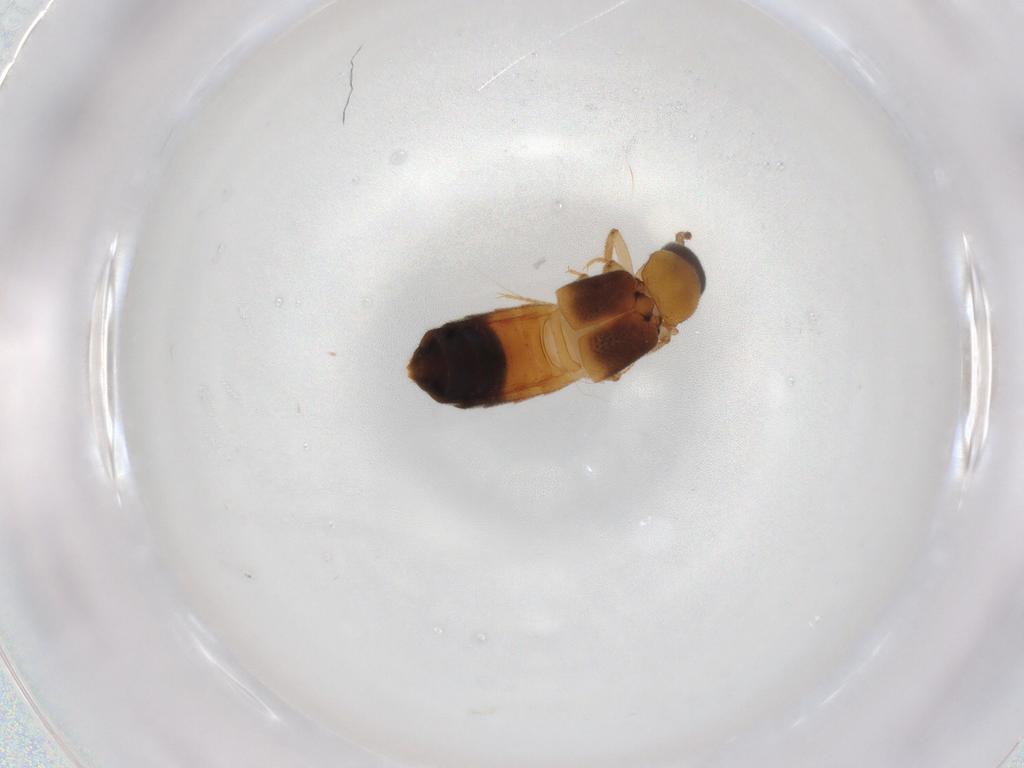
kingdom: Animalia
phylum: Arthropoda
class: Insecta
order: Coleoptera
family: Staphylinidae
